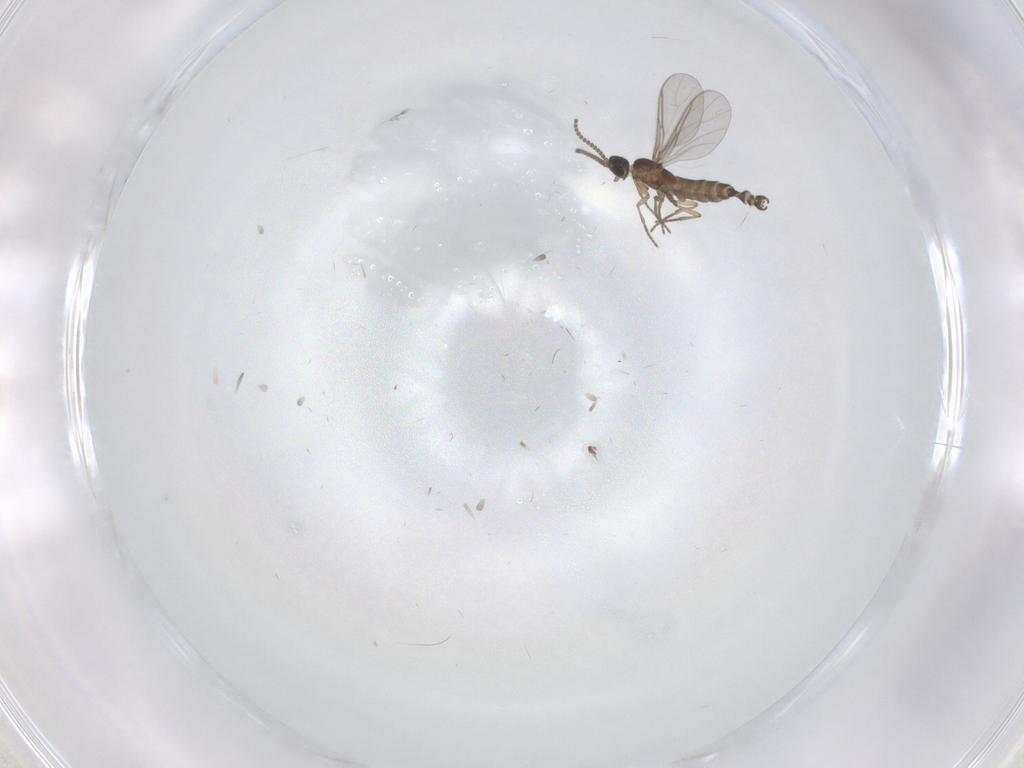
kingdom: Animalia
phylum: Arthropoda
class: Insecta
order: Diptera
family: Sciaridae
